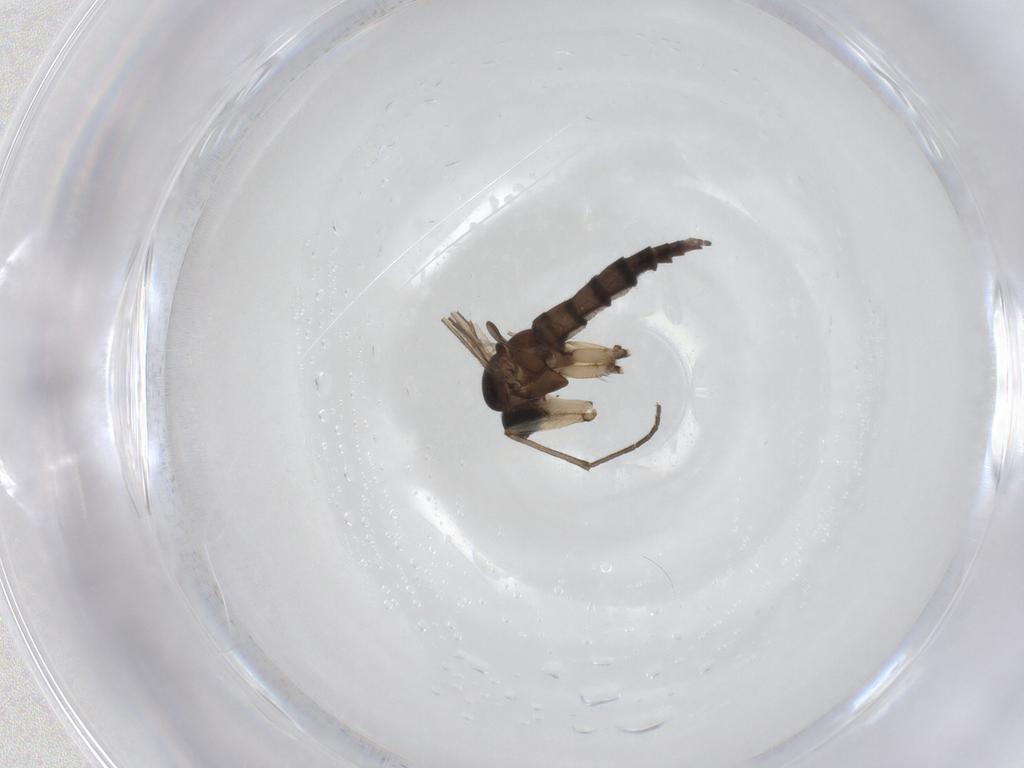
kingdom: Animalia
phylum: Arthropoda
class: Insecta
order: Diptera
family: Sciaridae
